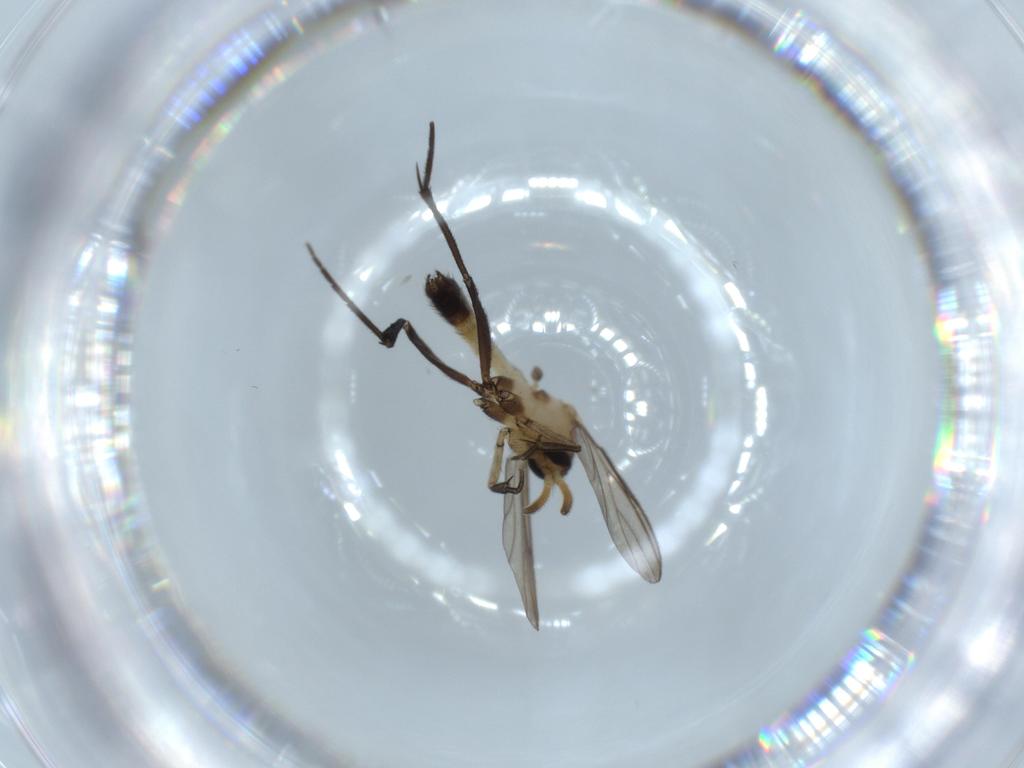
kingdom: Animalia
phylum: Arthropoda
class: Insecta
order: Diptera
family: Mycetophilidae
